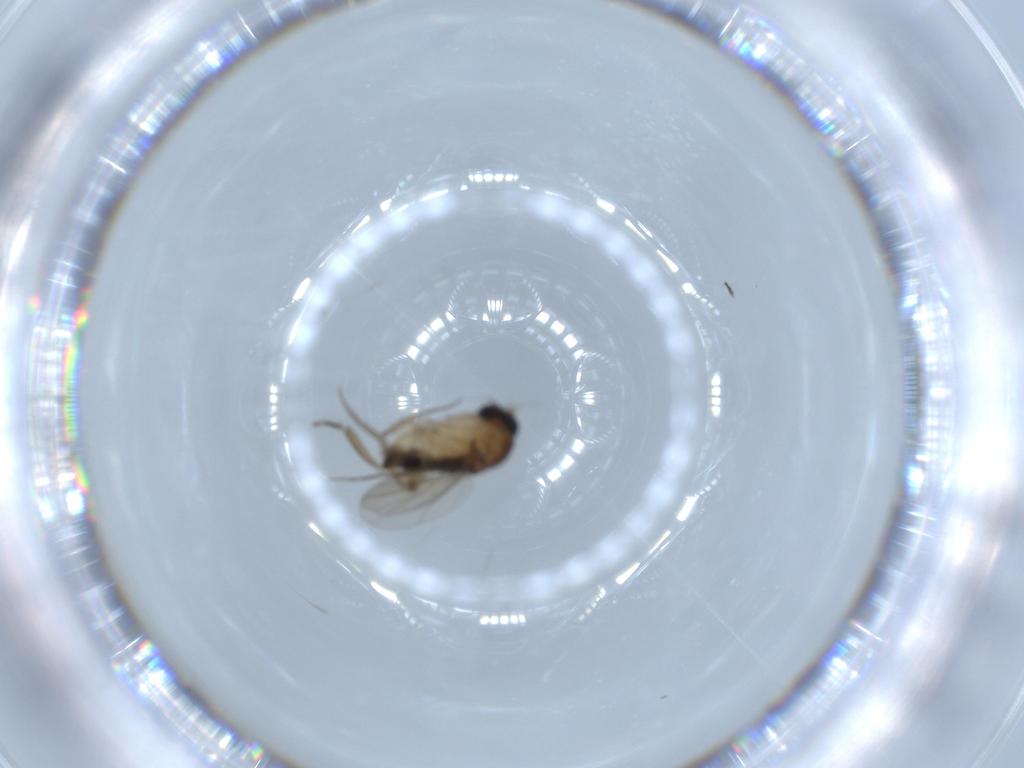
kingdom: Animalia
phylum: Arthropoda
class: Insecta
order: Diptera
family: Phoridae
